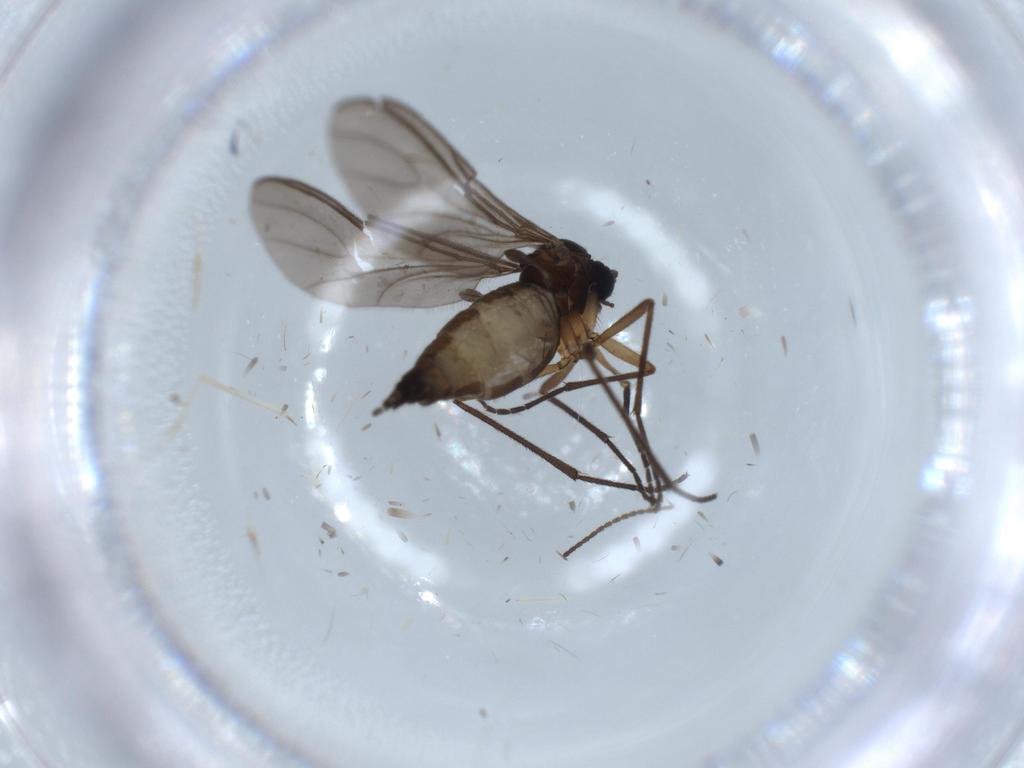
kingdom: Animalia
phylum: Arthropoda
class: Insecta
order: Diptera
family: Sciaridae
